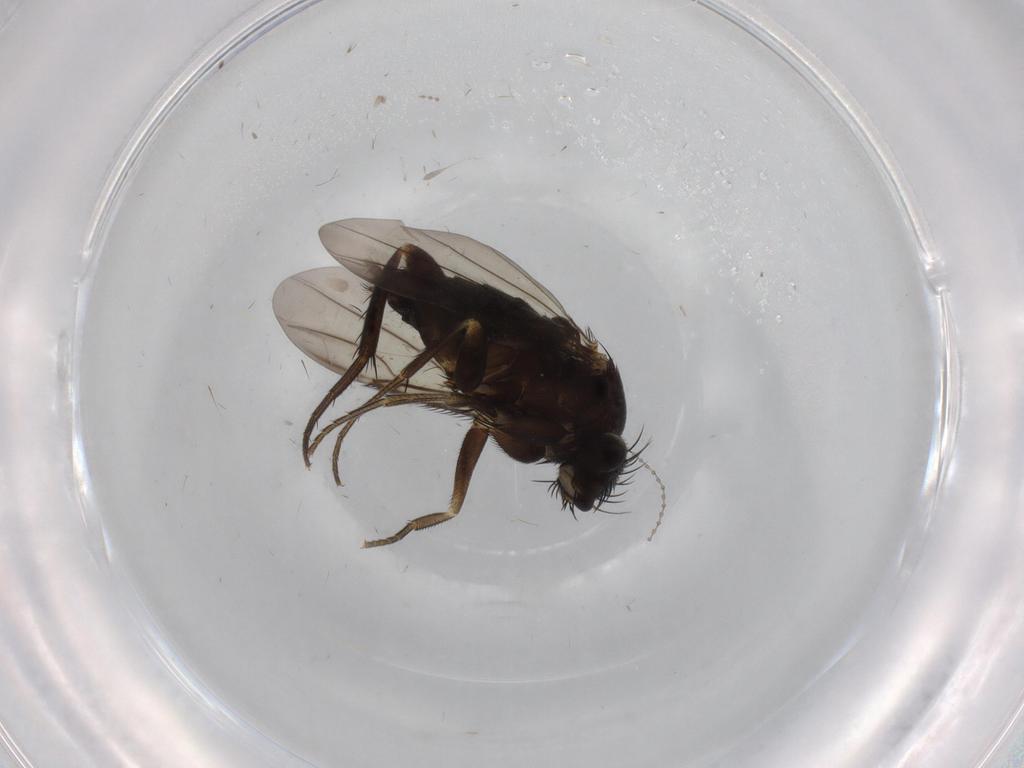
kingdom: Animalia
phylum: Arthropoda
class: Insecta
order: Diptera
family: Phoridae
